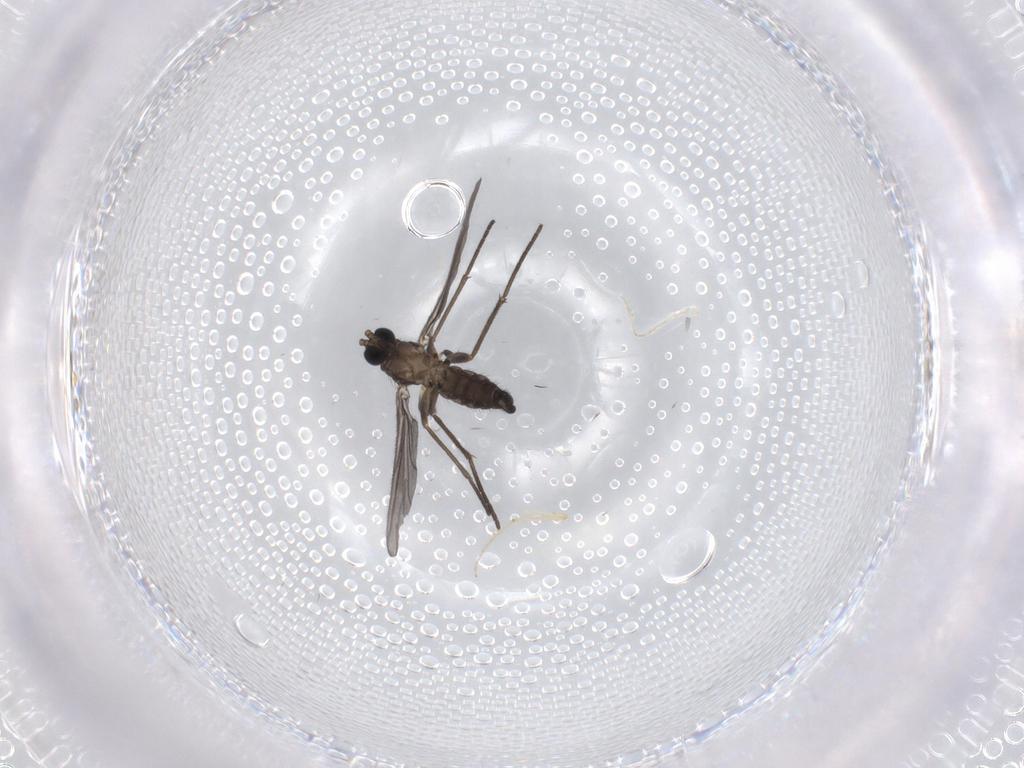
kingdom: Animalia
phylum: Arthropoda
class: Insecta
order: Diptera
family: Sciaridae
